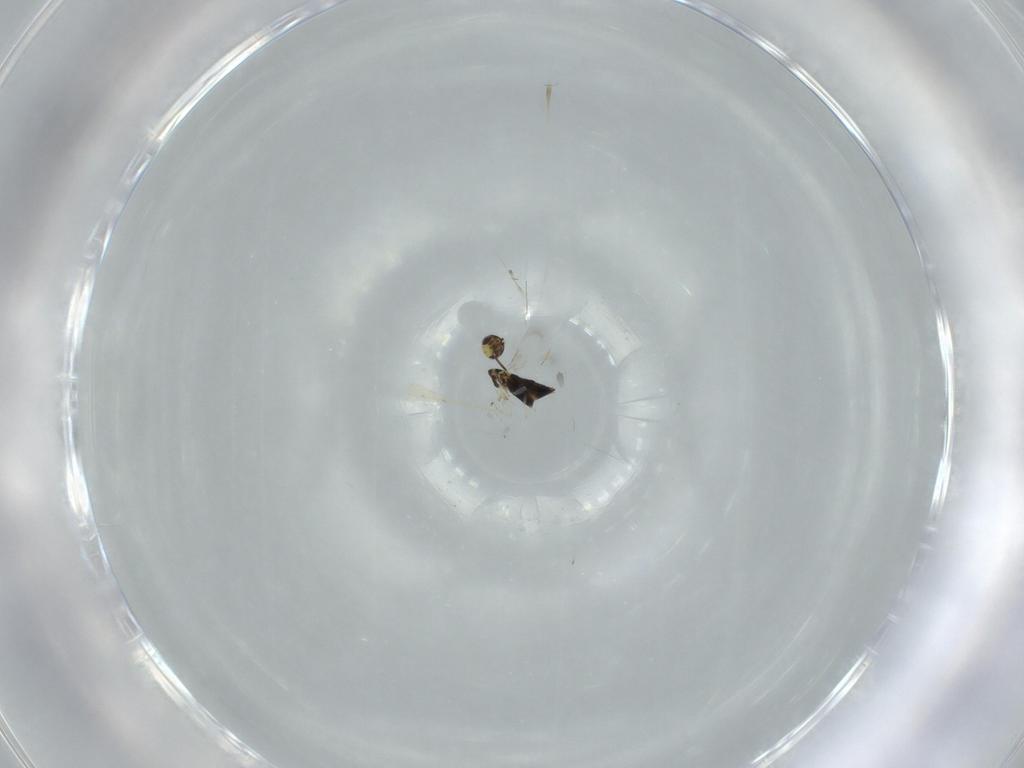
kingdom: Animalia
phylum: Arthropoda
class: Insecta
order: Hymenoptera
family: Signiphoridae
